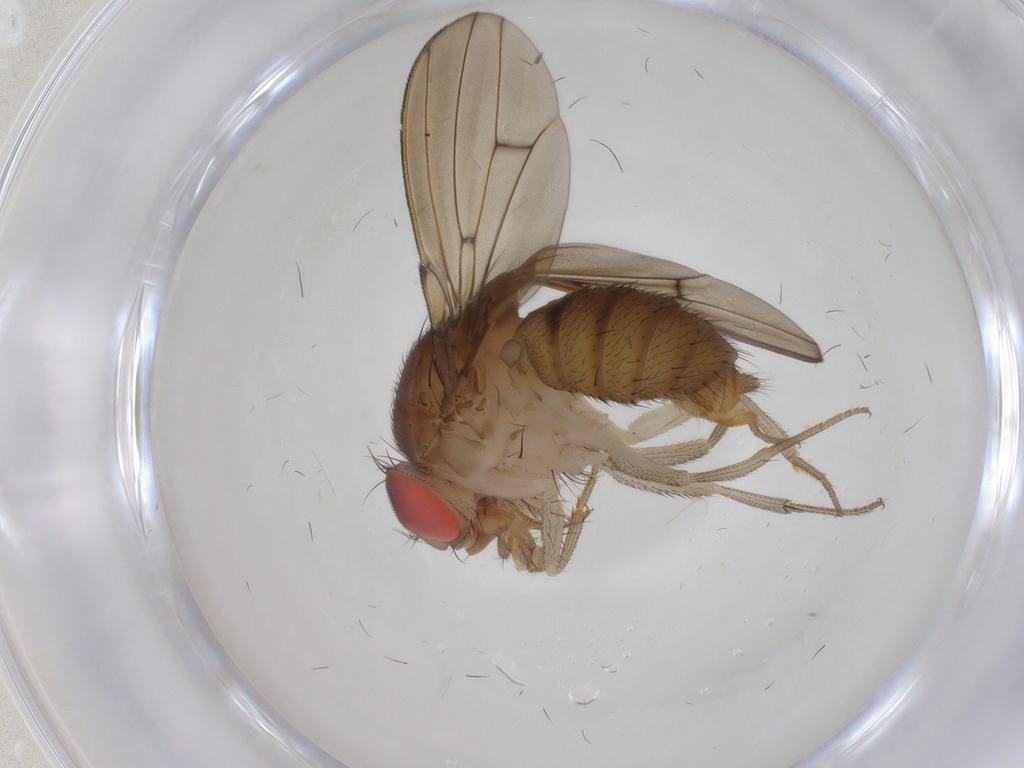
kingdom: Animalia
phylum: Arthropoda
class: Insecta
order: Diptera
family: Drosophilidae
